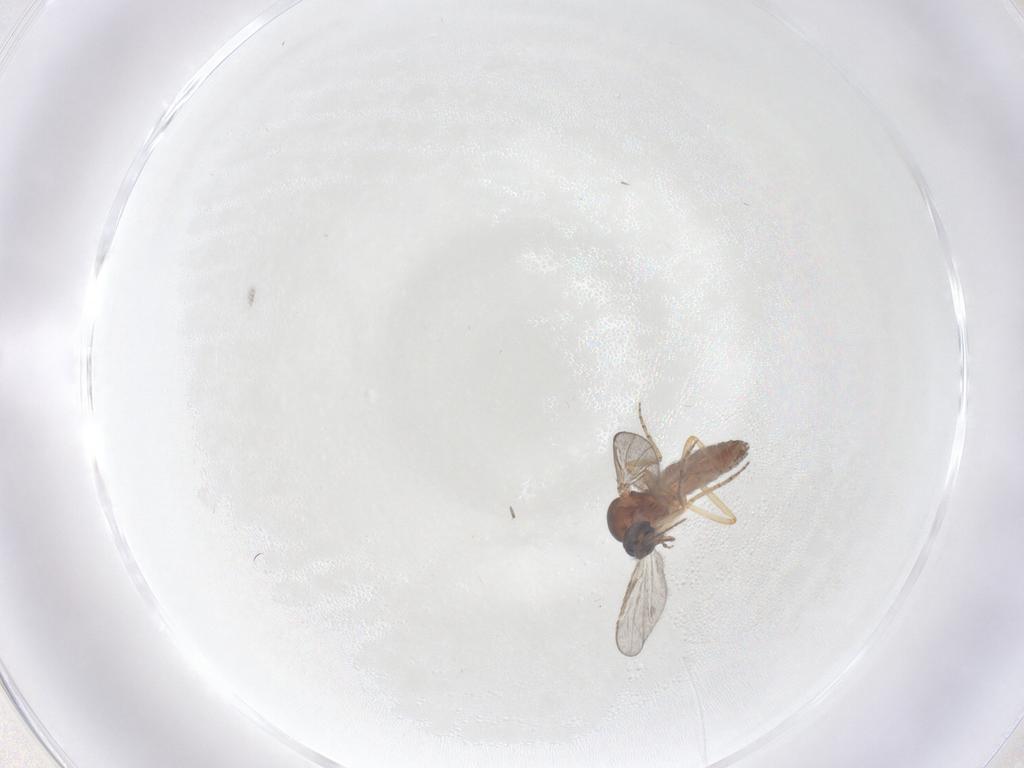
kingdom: Animalia
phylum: Arthropoda
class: Insecta
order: Diptera
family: Ceratopogonidae
